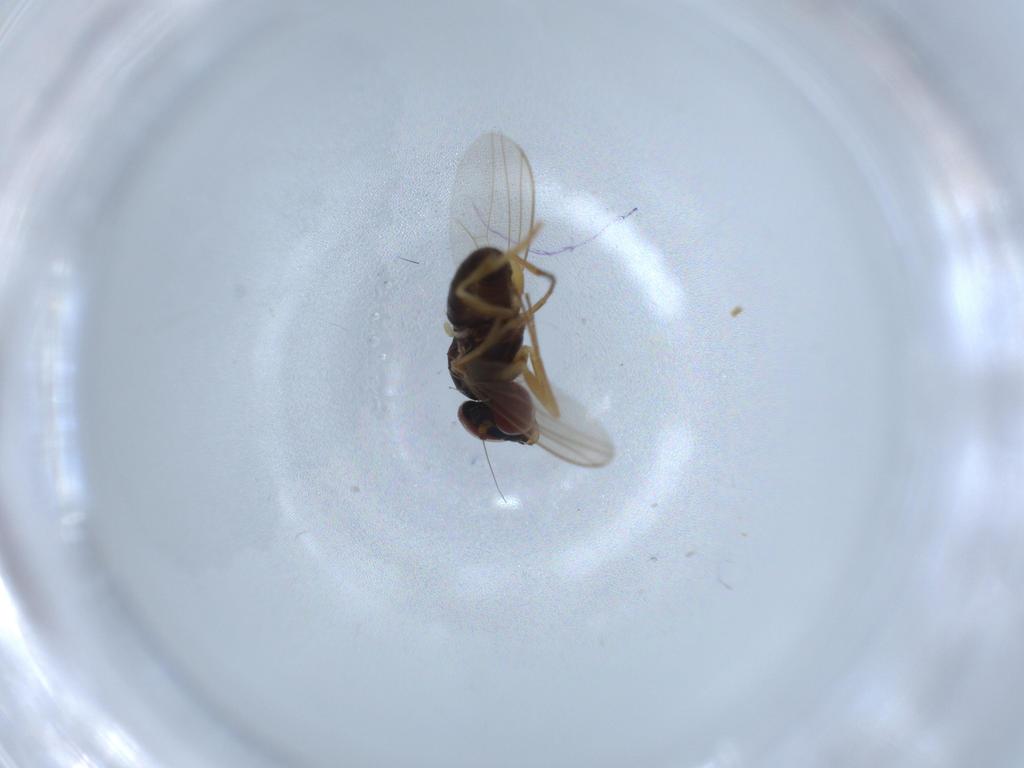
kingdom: Animalia
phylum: Arthropoda
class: Insecta
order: Diptera
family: Dolichopodidae
